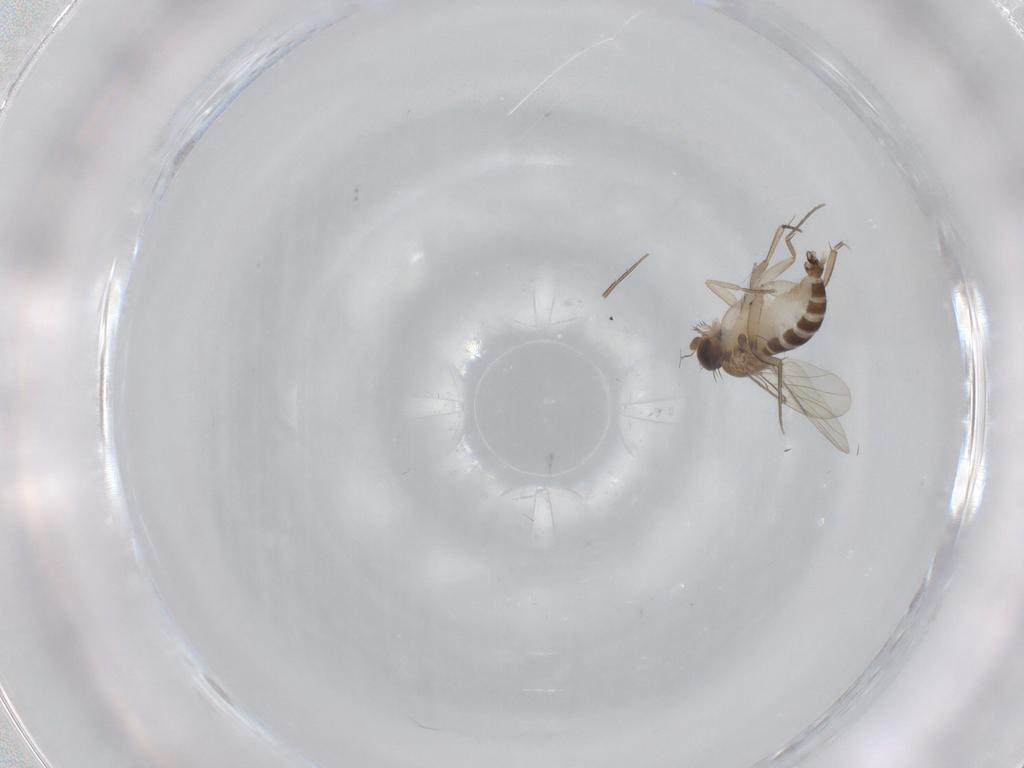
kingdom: Animalia
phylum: Arthropoda
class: Insecta
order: Diptera
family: Phoridae
